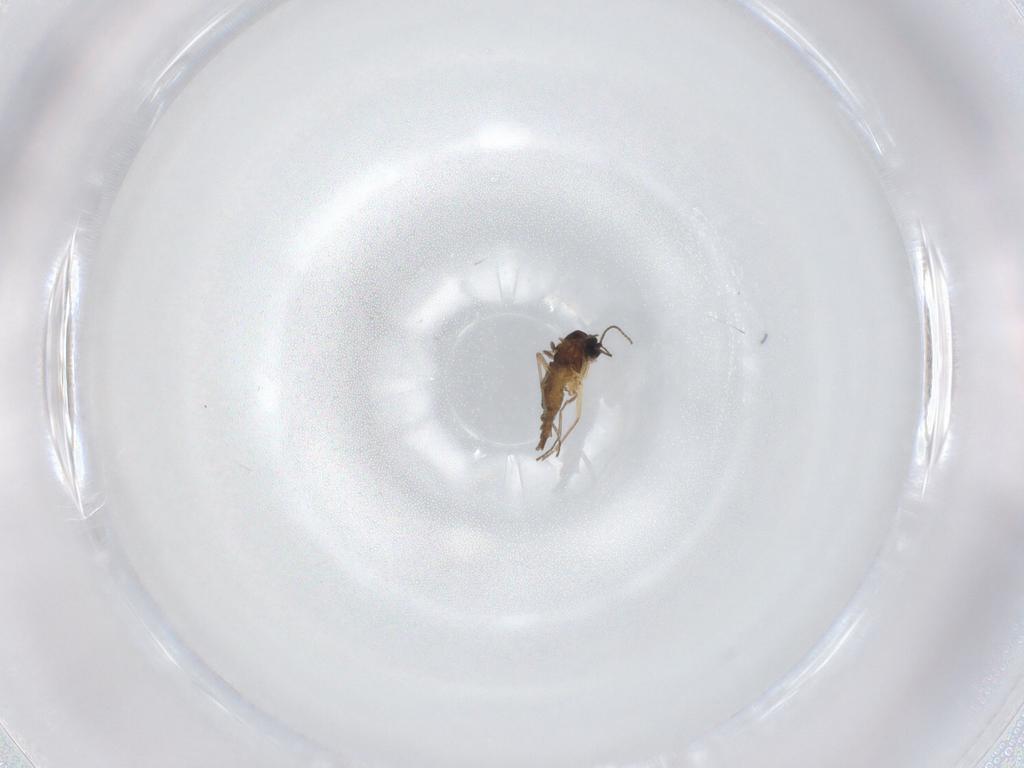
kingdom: Animalia
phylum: Arthropoda
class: Insecta
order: Diptera
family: Sciaridae
